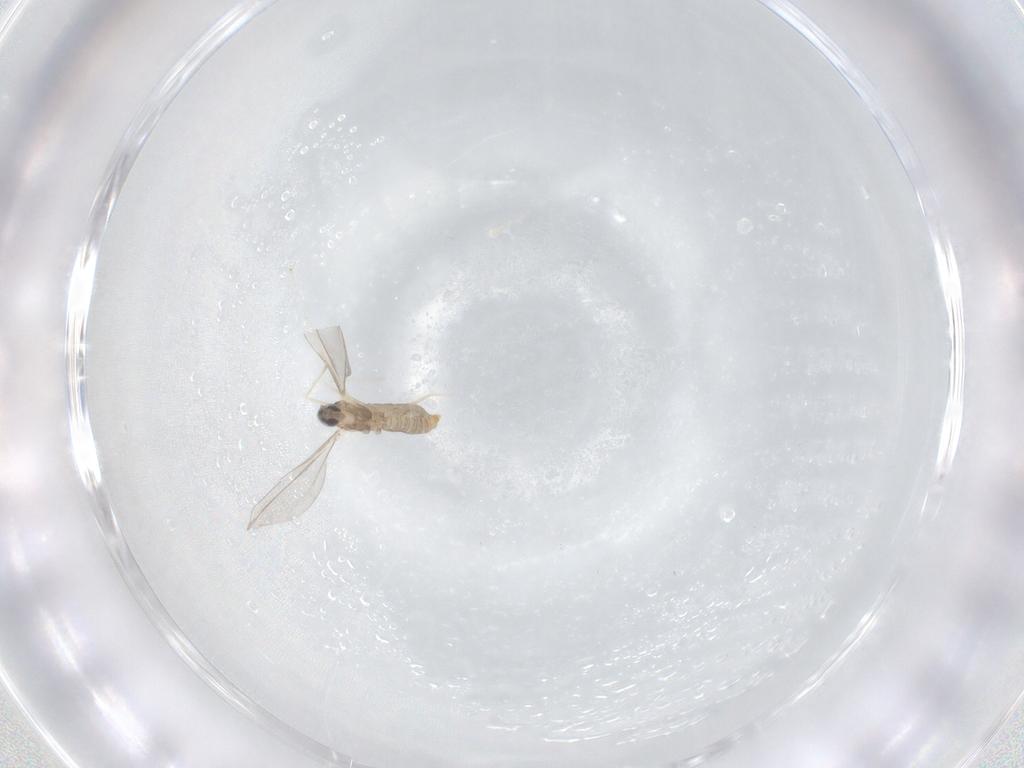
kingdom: Animalia
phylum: Arthropoda
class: Insecta
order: Diptera
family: Cecidomyiidae
